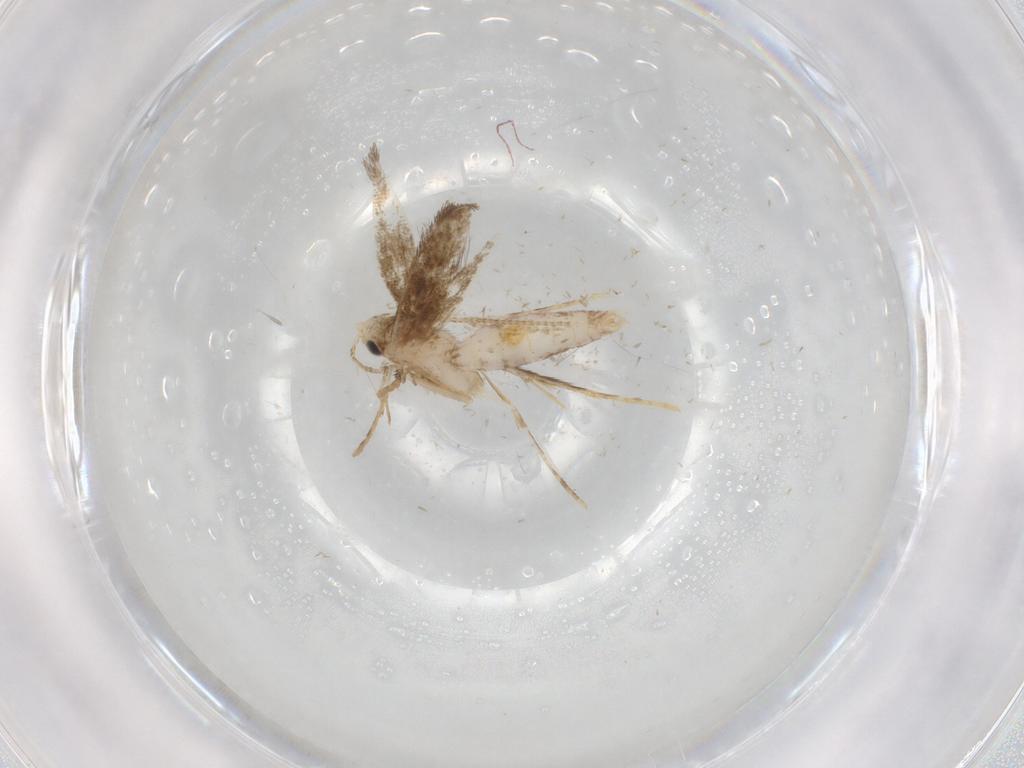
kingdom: Animalia
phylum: Arthropoda
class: Insecta
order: Lepidoptera
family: Lyonetiidae
